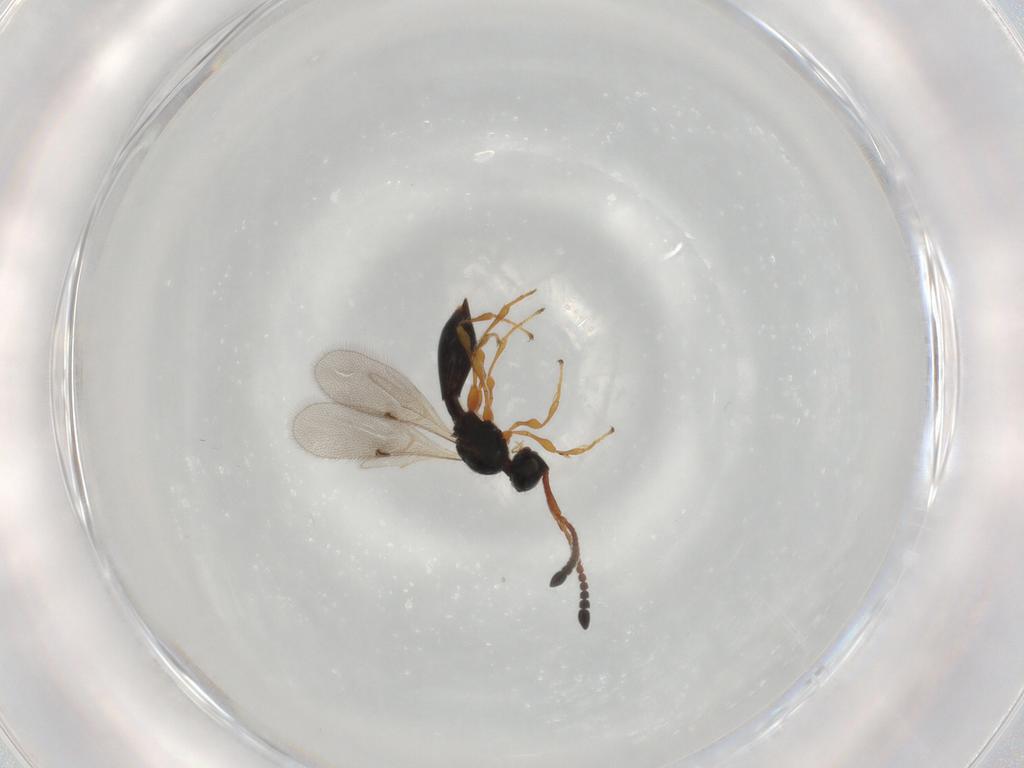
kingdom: Animalia
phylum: Arthropoda
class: Insecta
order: Hymenoptera
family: Diapriidae
